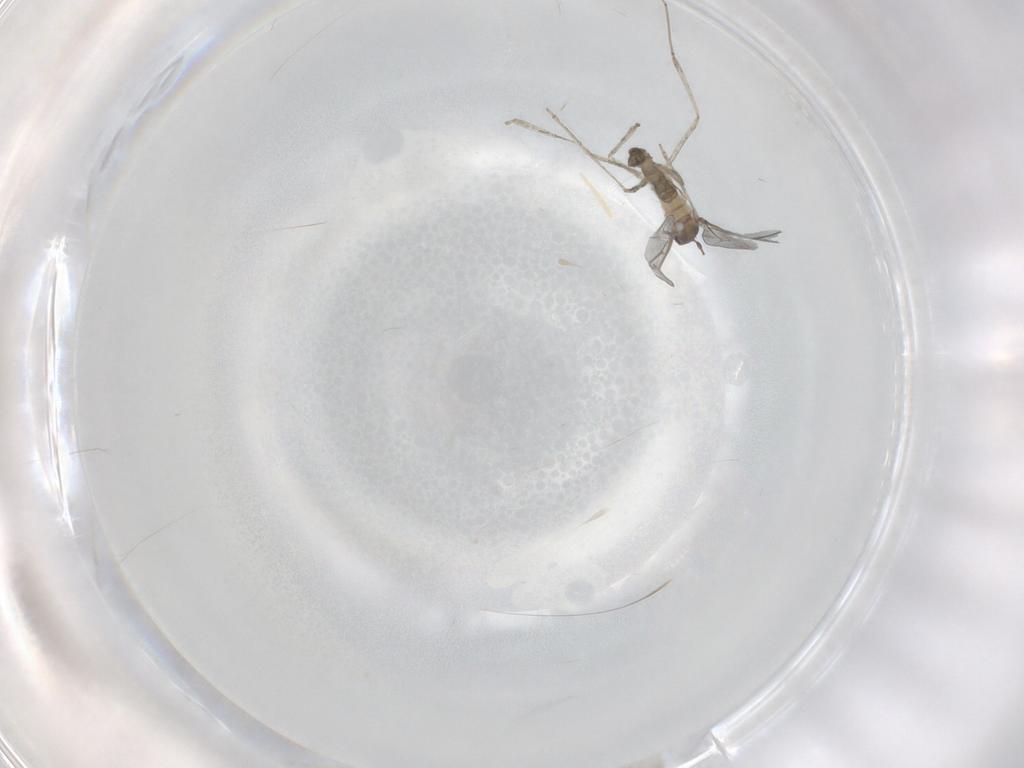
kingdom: Animalia
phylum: Arthropoda
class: Insecta
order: Diptera
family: Cecidomyiidae
